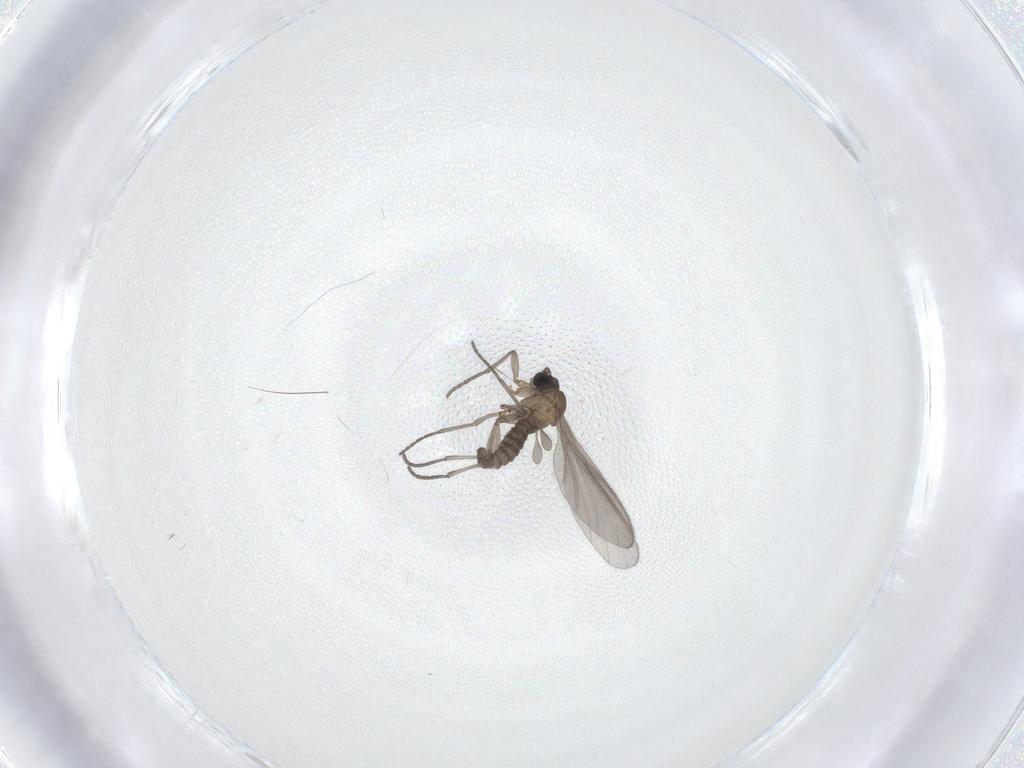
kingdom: Animalia
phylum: Arthropoda
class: Insecta
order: Diptera
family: Sciaridae
